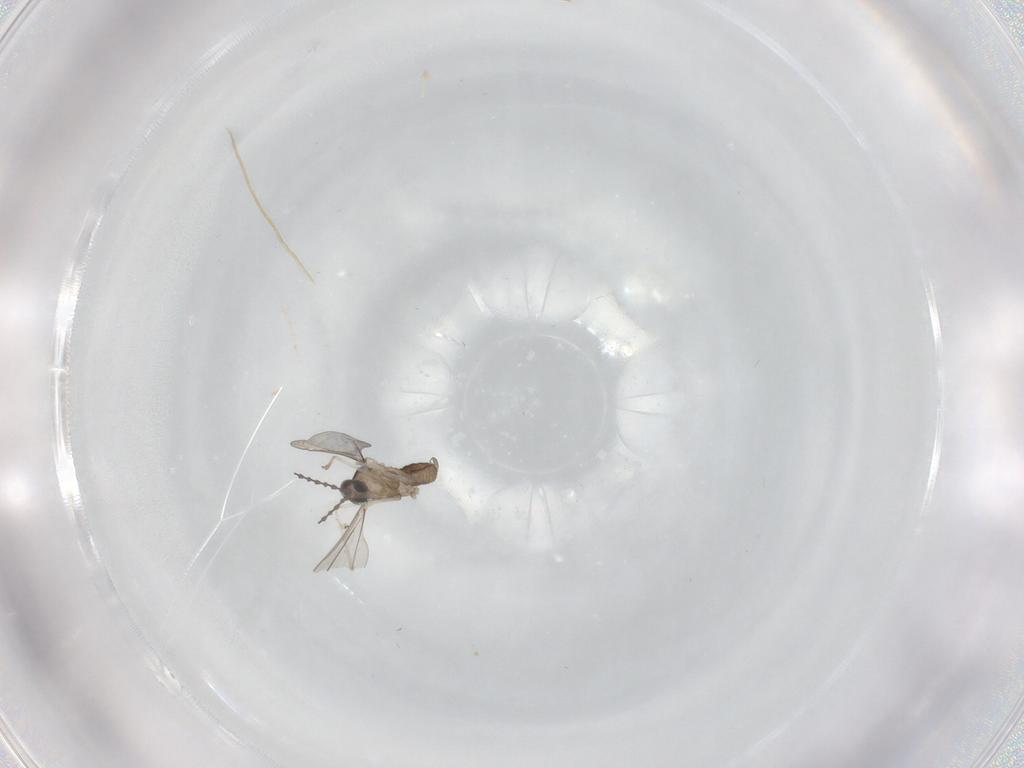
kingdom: Animalia
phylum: Arthropoda
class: Insecta
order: Diptera
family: Cecidomyiidae
